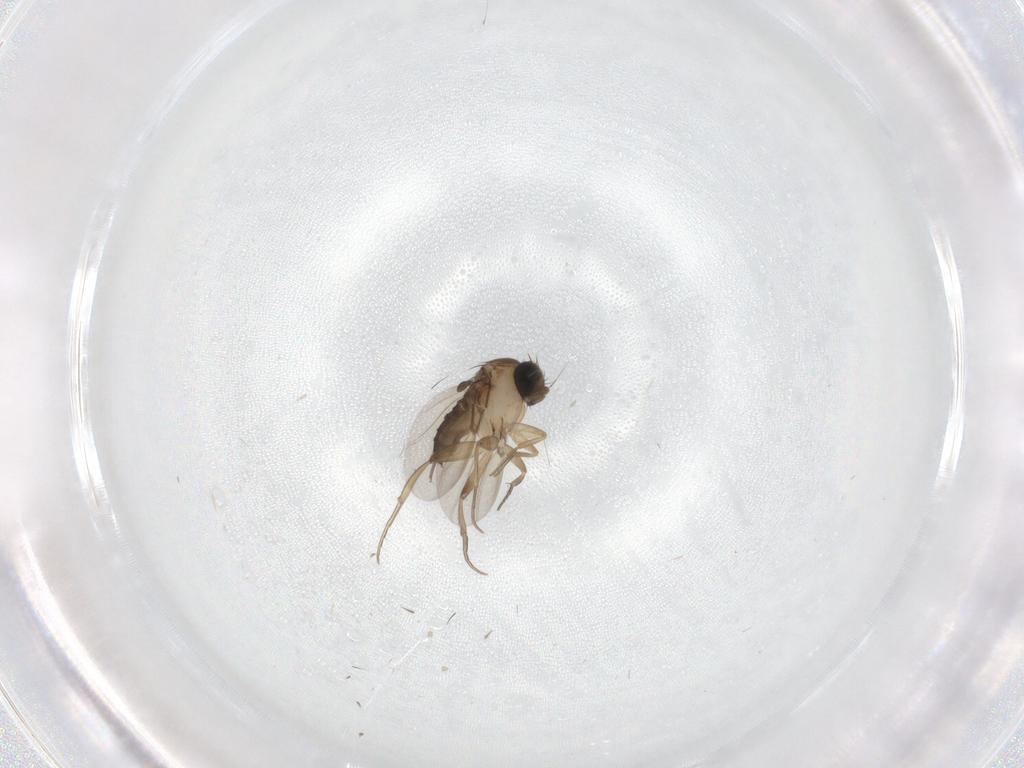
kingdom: Animalia
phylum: Arthropoda
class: Insecta
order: Diptera
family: Phoridae
